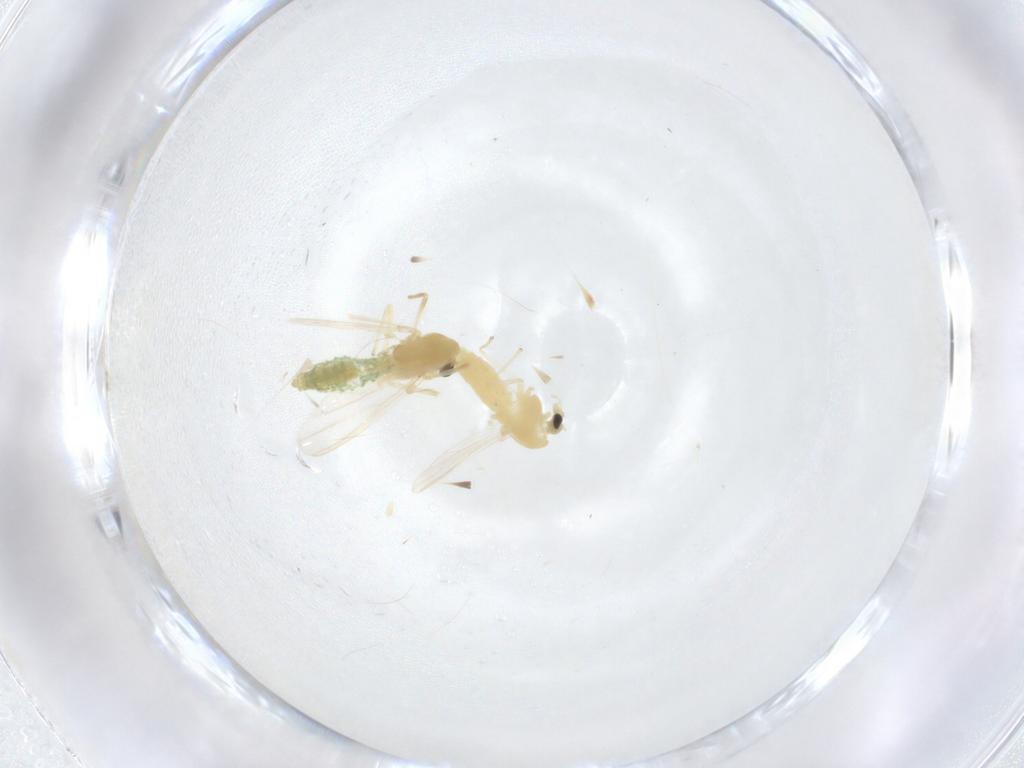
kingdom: Animalia
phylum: Arthropoda
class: Insecta
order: Diptera
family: Chironomidae
